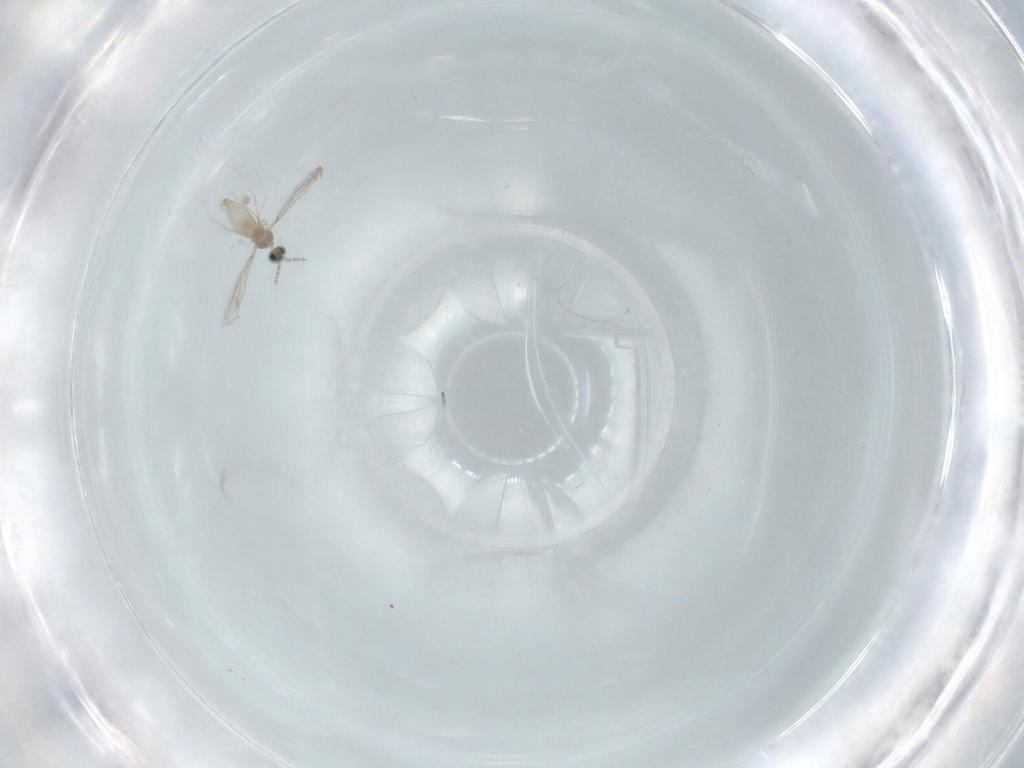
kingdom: Animalia
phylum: Arthropoda
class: Insecta
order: Diptera
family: Cecidomyiidae
